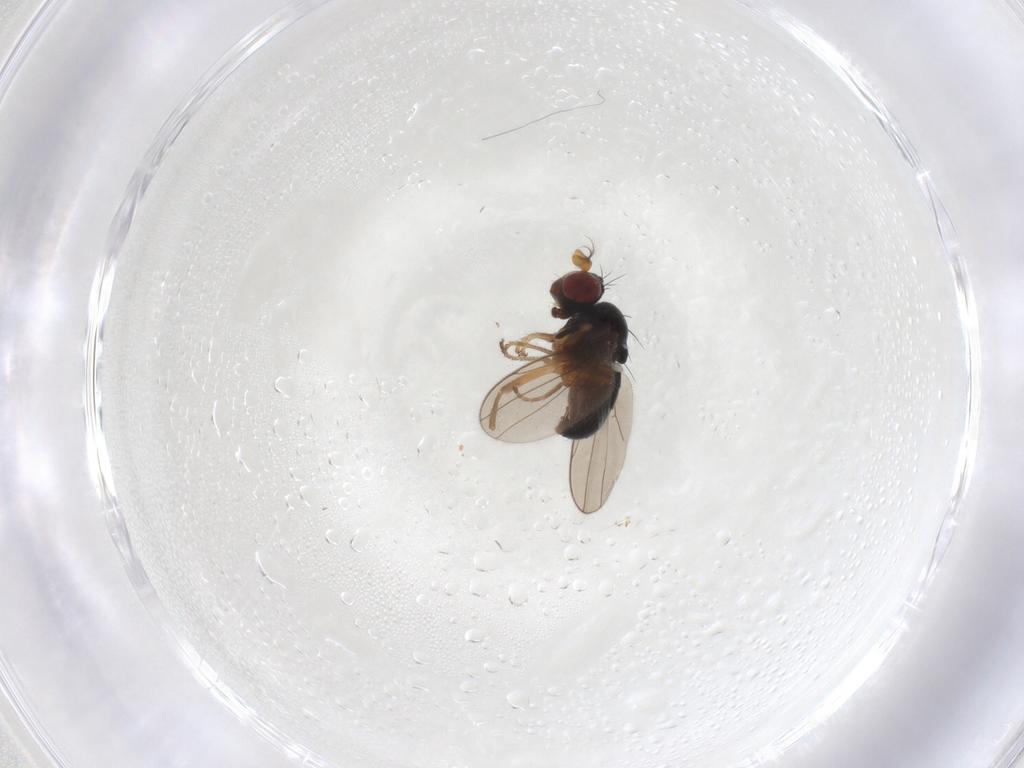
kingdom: Animalia
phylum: Arthropoda
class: Insecta
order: Diptera
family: Ephydridae
